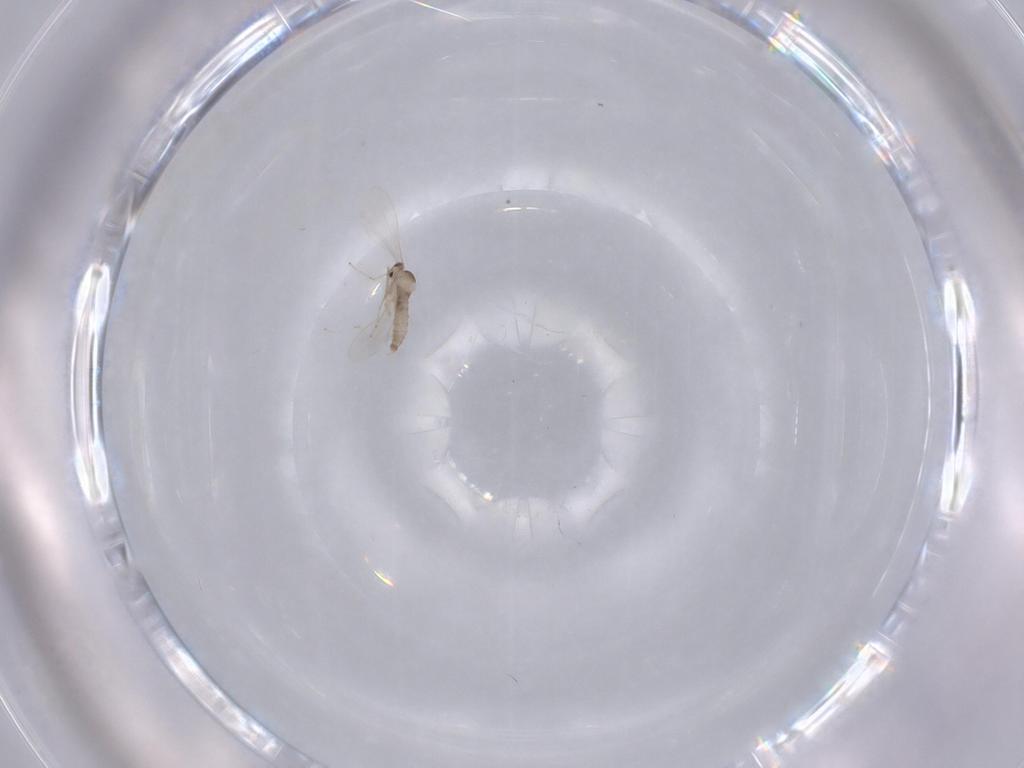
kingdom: Animalia
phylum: Arthropoda
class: Insecta
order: Diptera
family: Cecidomyiidae
